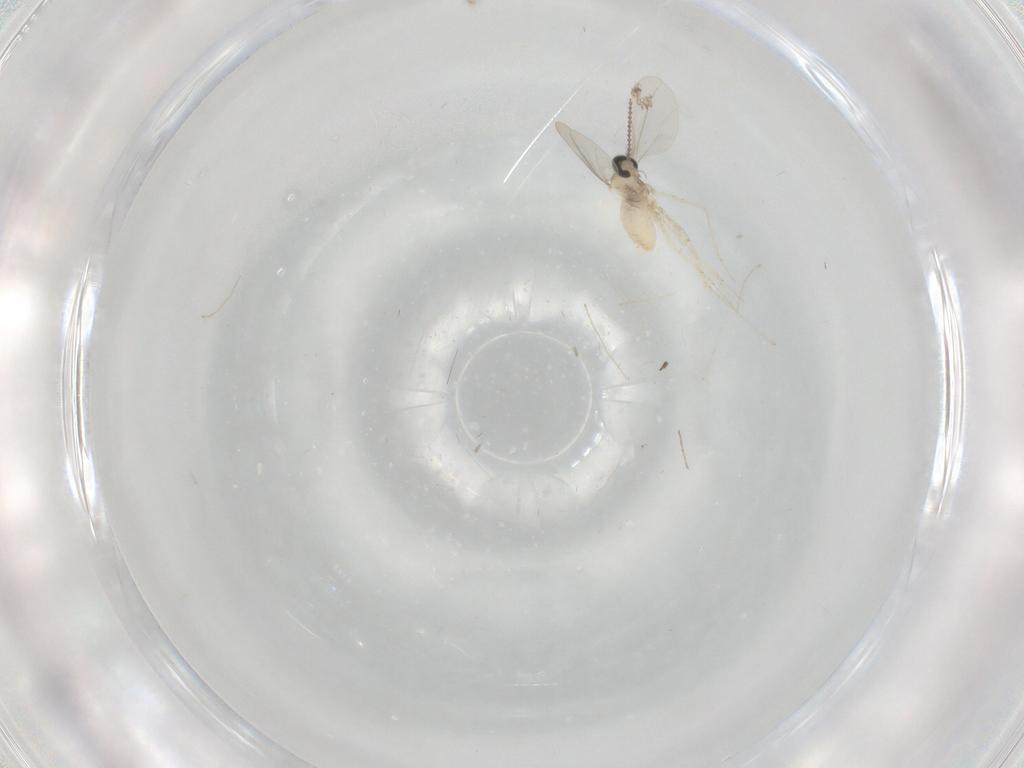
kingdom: Animalia
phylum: Arthropoda
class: Insecta
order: Diptera
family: Cecidomyiidae
